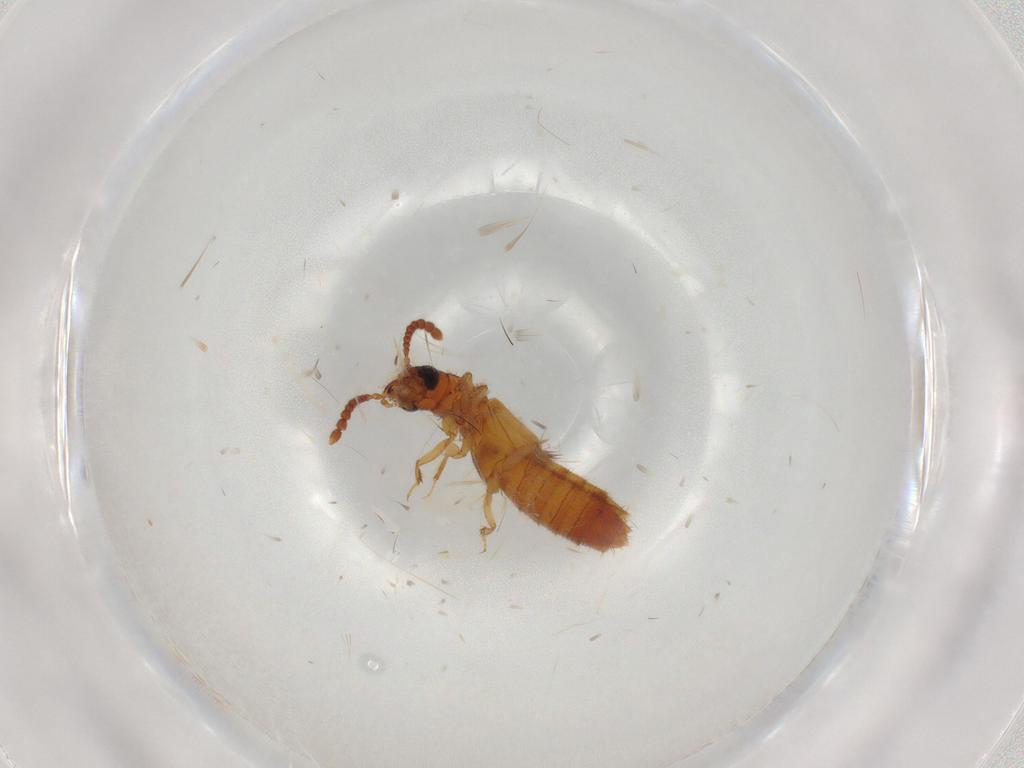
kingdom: Animalia
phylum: Arthropoda
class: Insecta
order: Coleoptera
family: Staphylinidae
